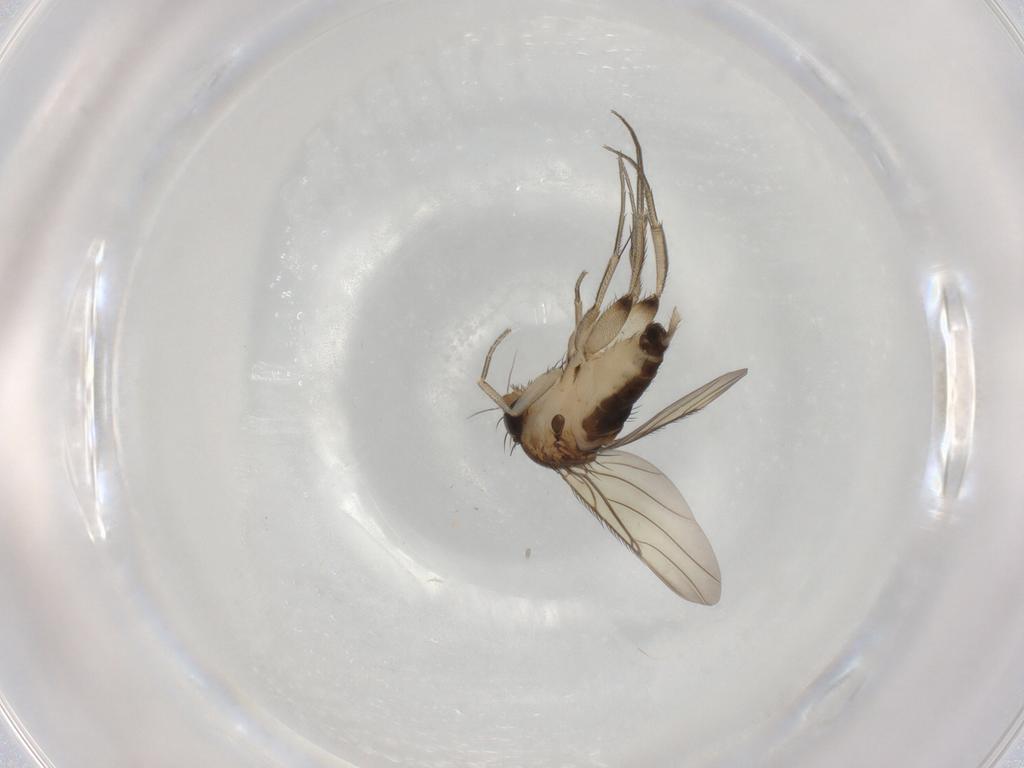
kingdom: Animalia
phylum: Arthropoda
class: Insecta
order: Diptera
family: Phoridae
